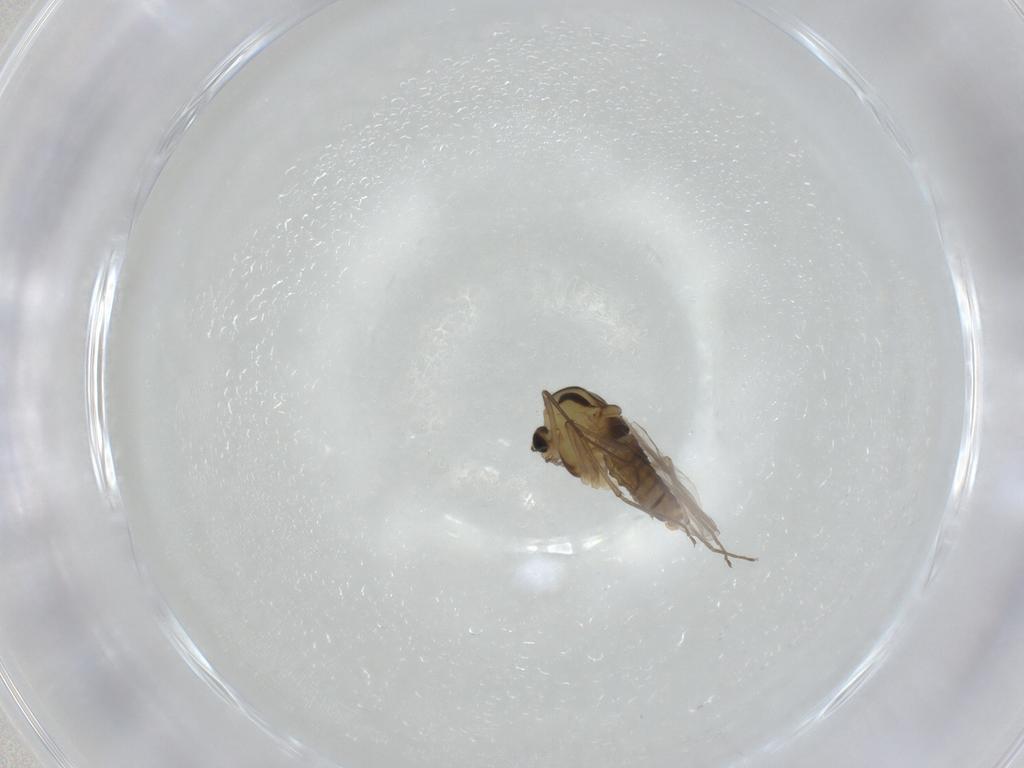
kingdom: Animalia
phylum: Arthropoda
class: Insecta
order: Diptera
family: Chironomidae
